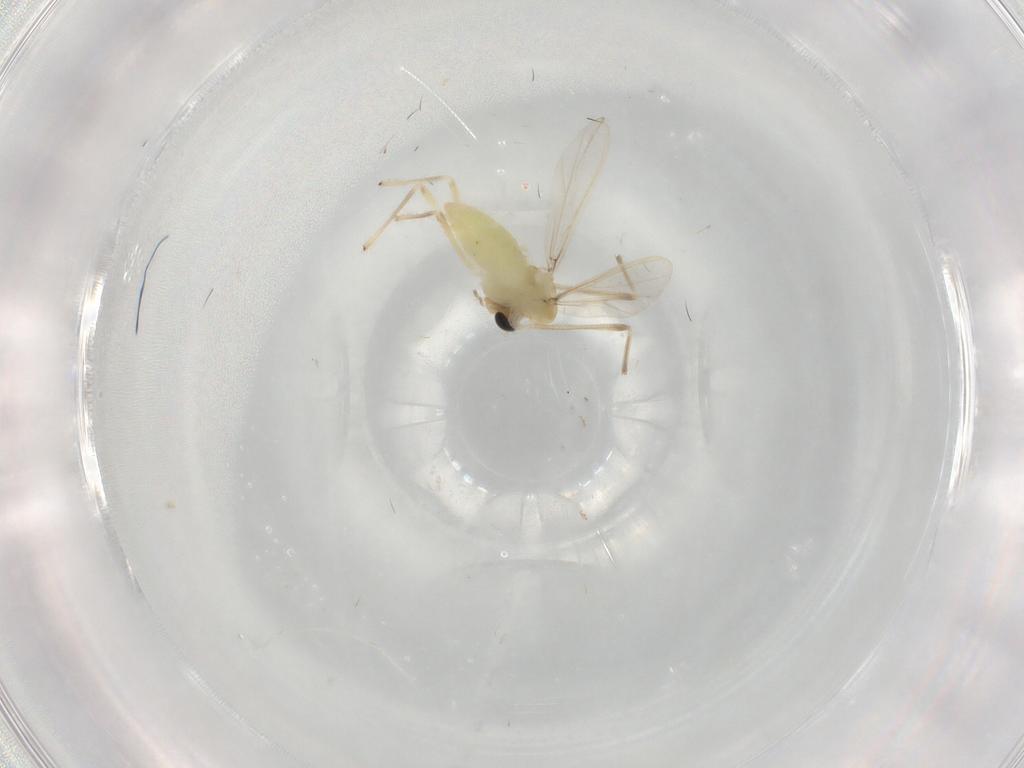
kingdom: Animalia
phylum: Arthropoda
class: Insecta
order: Diptera
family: Chironomidae
